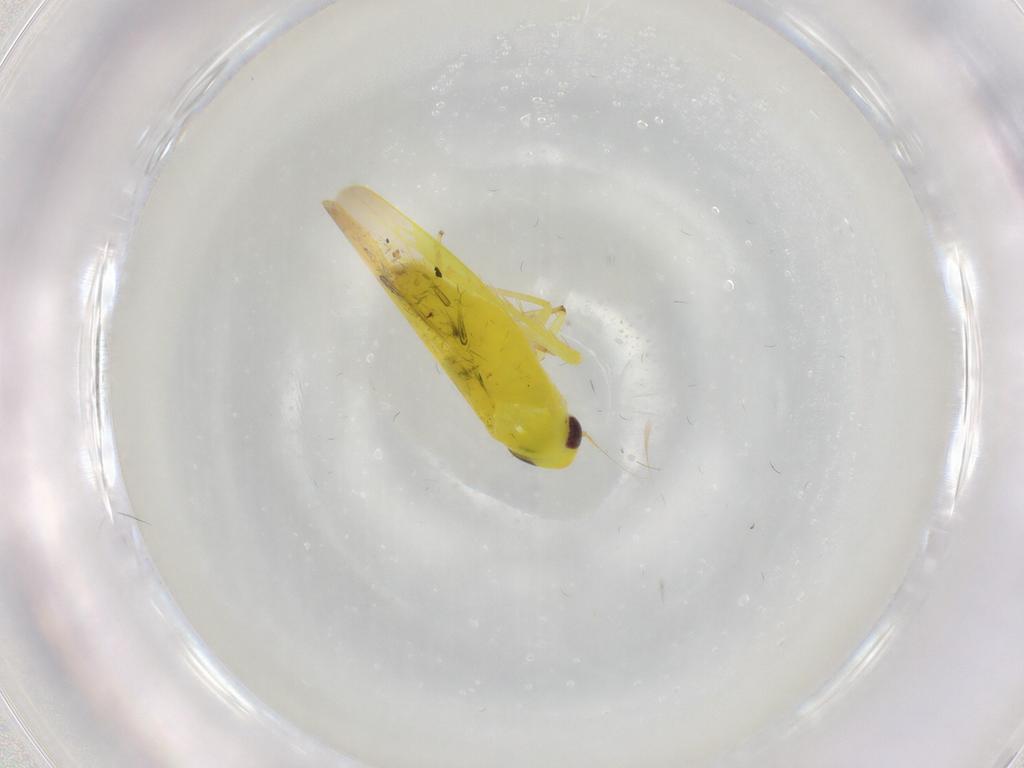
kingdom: Animalia
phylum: Arthropoda
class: Insecta
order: Hemiptera
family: Cicadellidae
